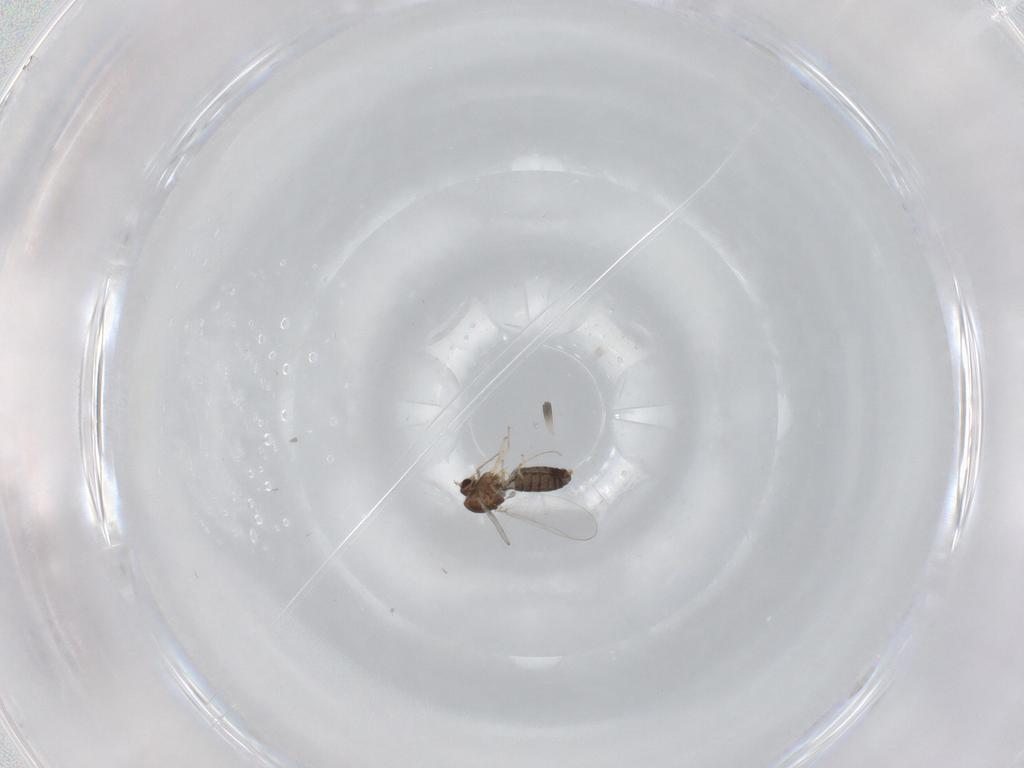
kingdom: Animalia
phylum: Arthropoda
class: Insecta
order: Diptera
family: Chironomidae
